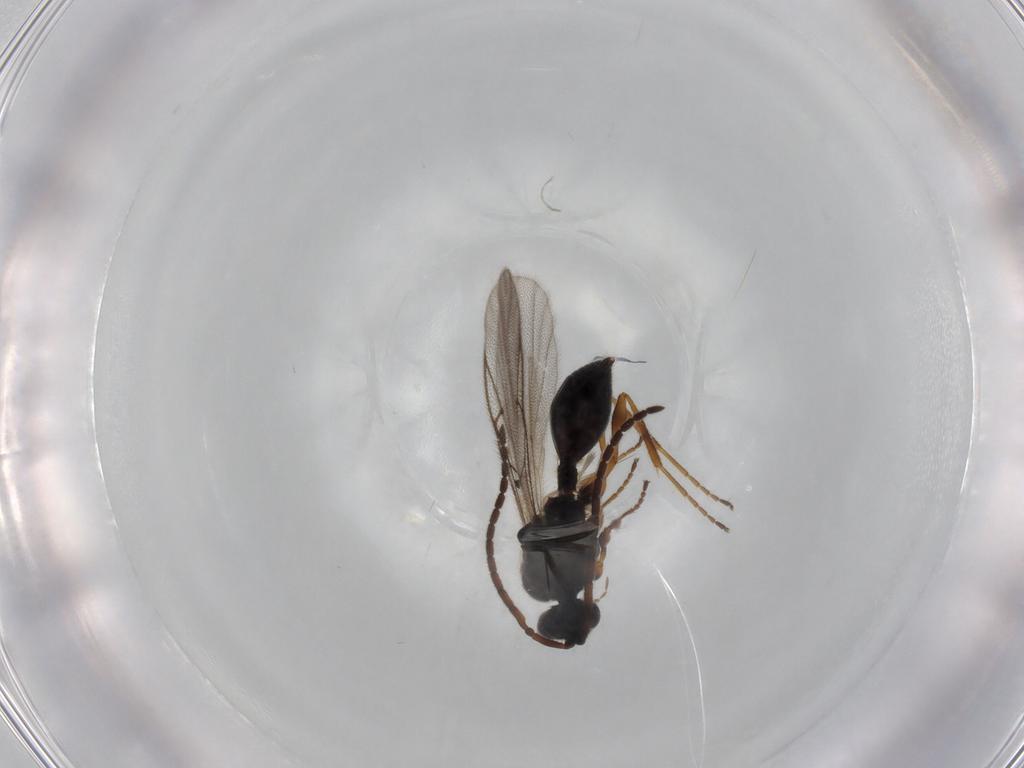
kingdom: Animalia
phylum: Arthropoda
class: Insecta
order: Hymenoptera
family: Diapriidae
